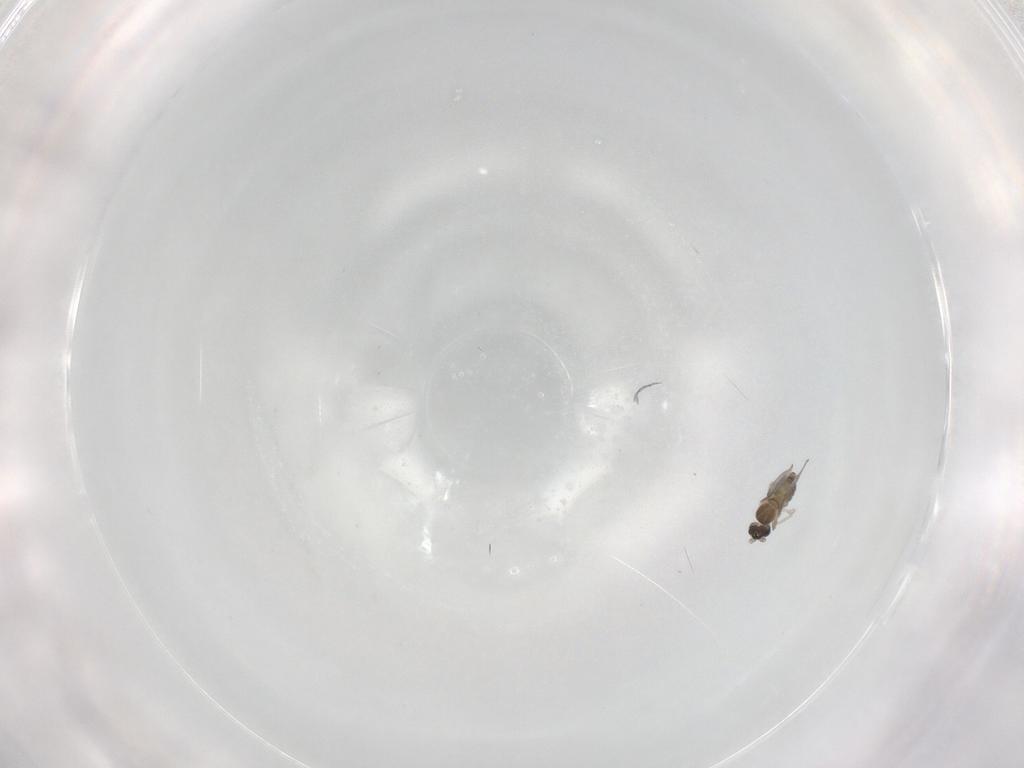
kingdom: Animalia
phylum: Arthropoda
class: Insecta
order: Diptera
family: Cecidomyiidae
